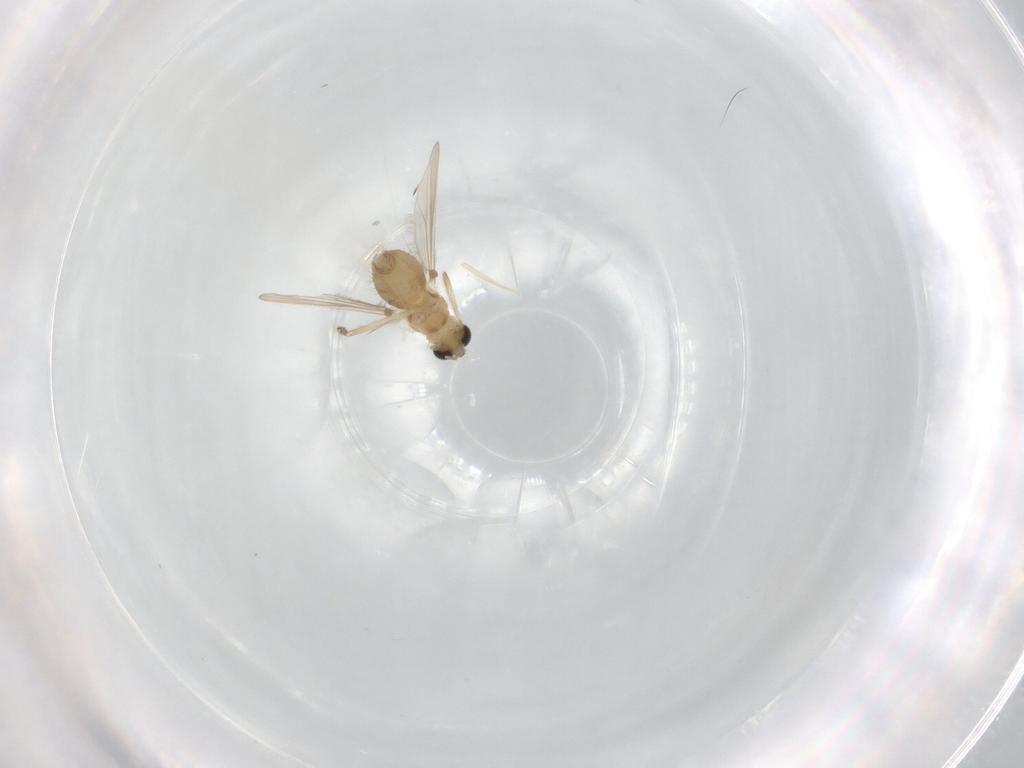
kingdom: Animalia
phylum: Arthropoda
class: Insecta
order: Diptera
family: Chironomidae
